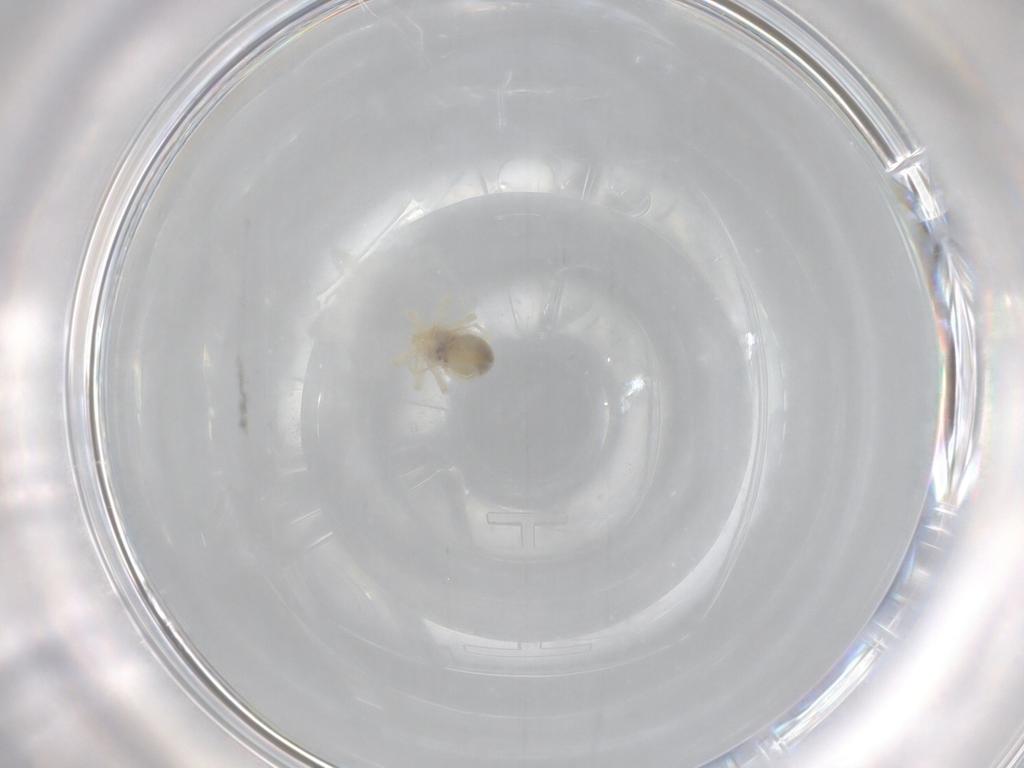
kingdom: Animalia
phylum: Arthropoda
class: Arachnida
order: Trombidiformes
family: Anystidae
